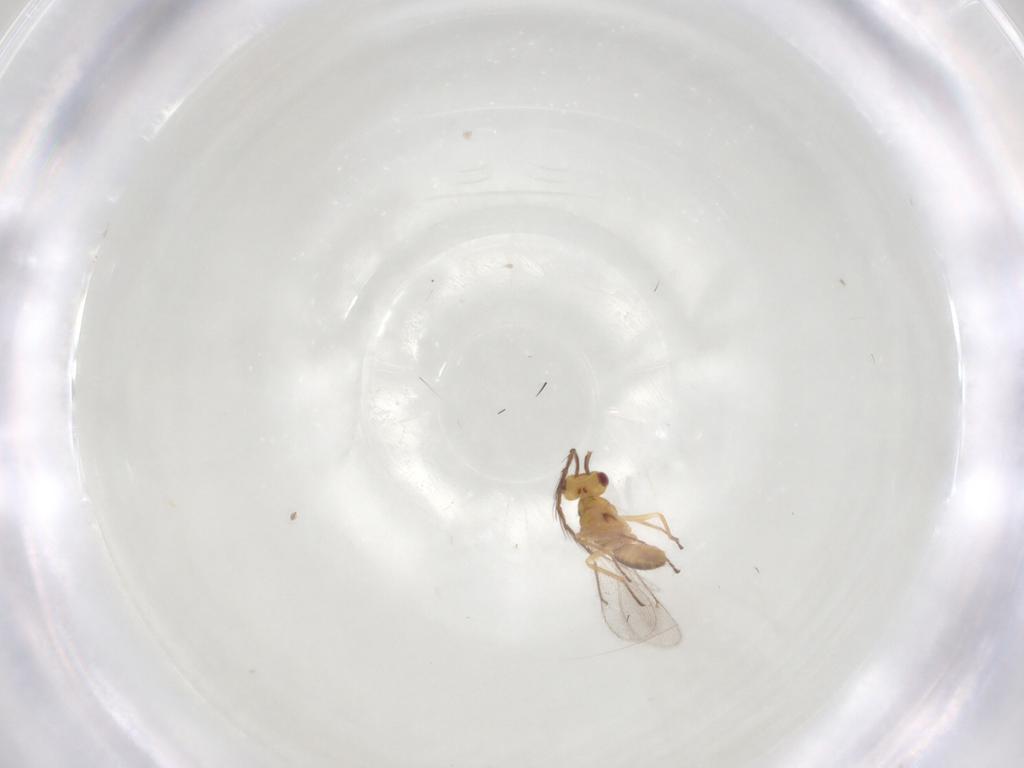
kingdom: Animalia
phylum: Arthropoda
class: Insecta
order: Hymenoptera
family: Eulophidae
